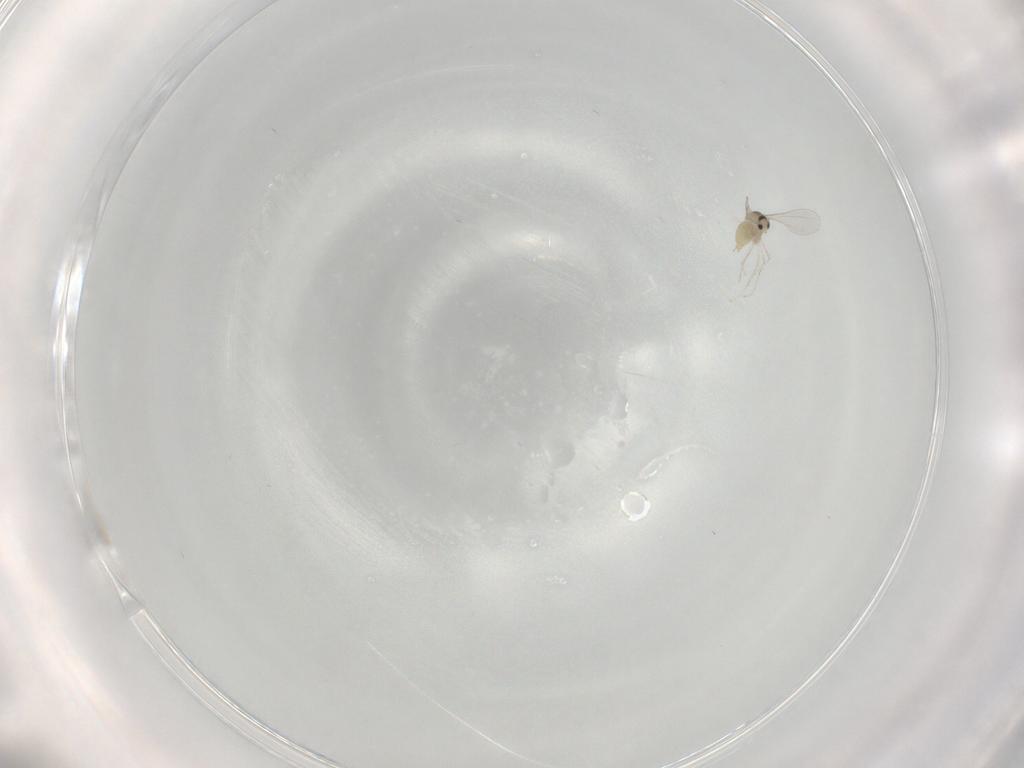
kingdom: Animalia
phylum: Arthropoda
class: Insecta
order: Diptera
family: Cecidomyiidae
